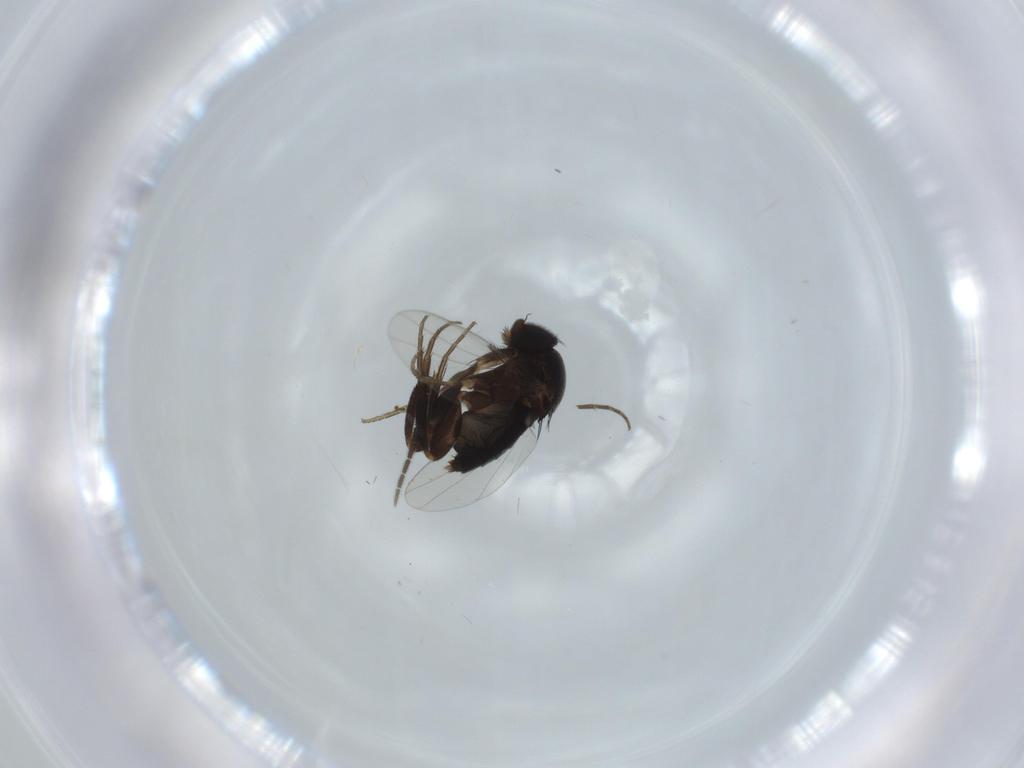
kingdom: Animalia
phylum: Arthropoda
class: Insecta
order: Diptera
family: Phoridae
